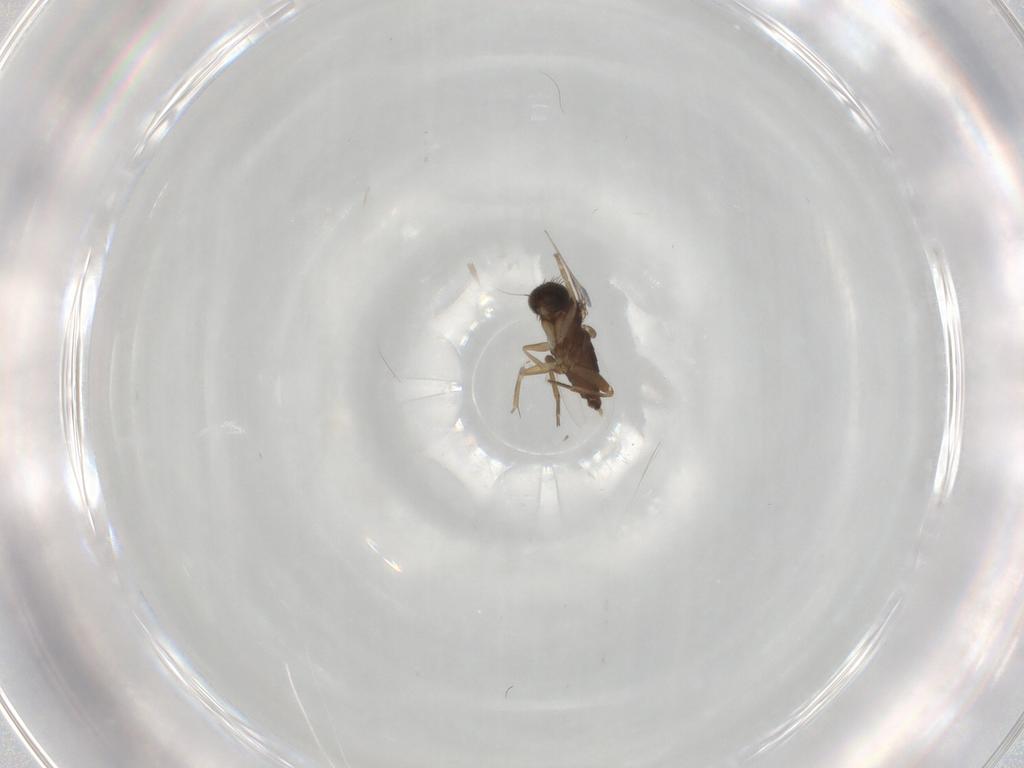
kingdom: Animalia
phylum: Arthropoda
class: Insecta
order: Diptera
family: Phoridae
